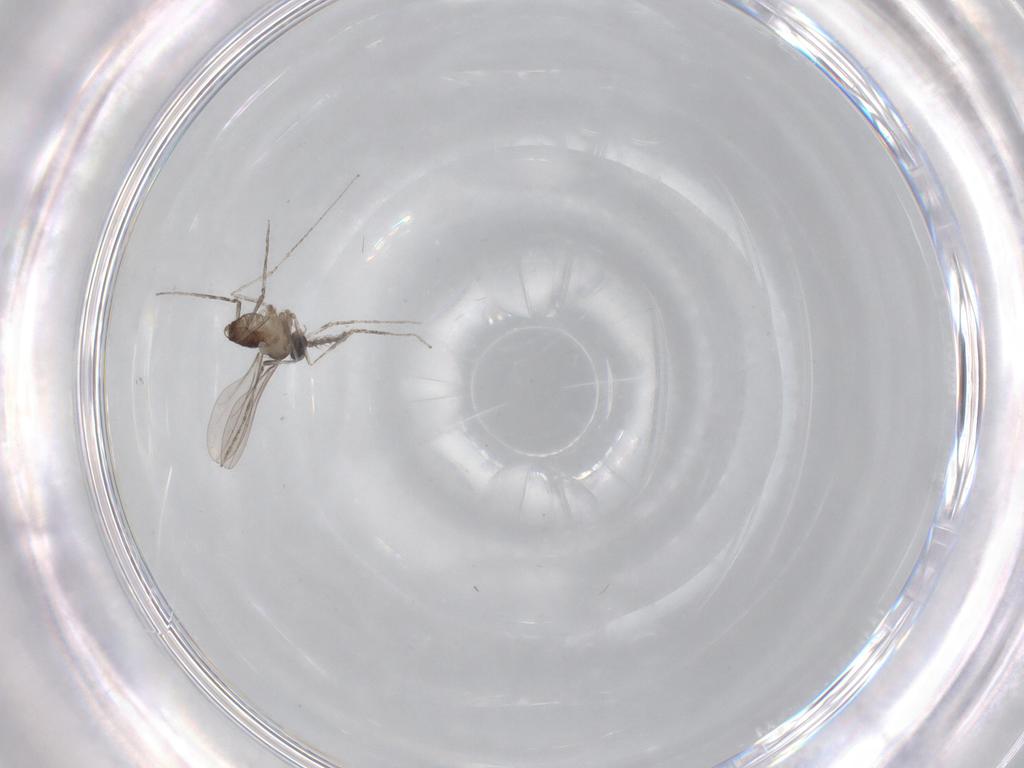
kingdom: Animalia
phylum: Arthropoda
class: Insecta
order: Diptera
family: Cecidomyiidae
